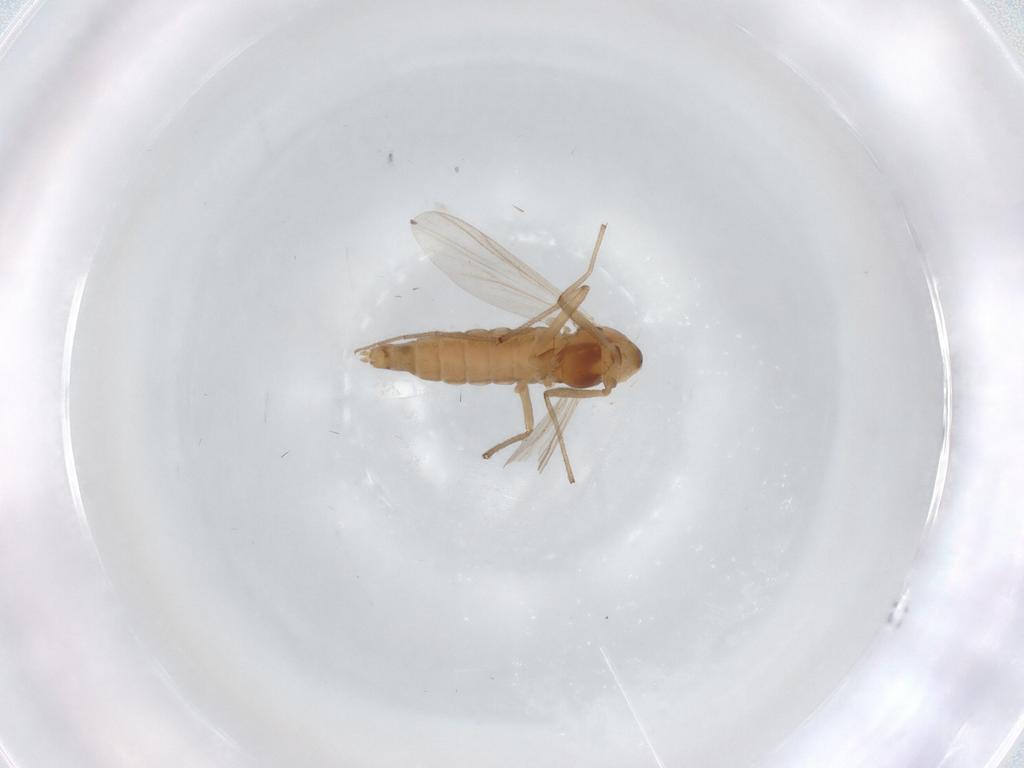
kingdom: Animalia
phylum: Arthropoda
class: Insecta
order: Diptera
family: Chironomidae
